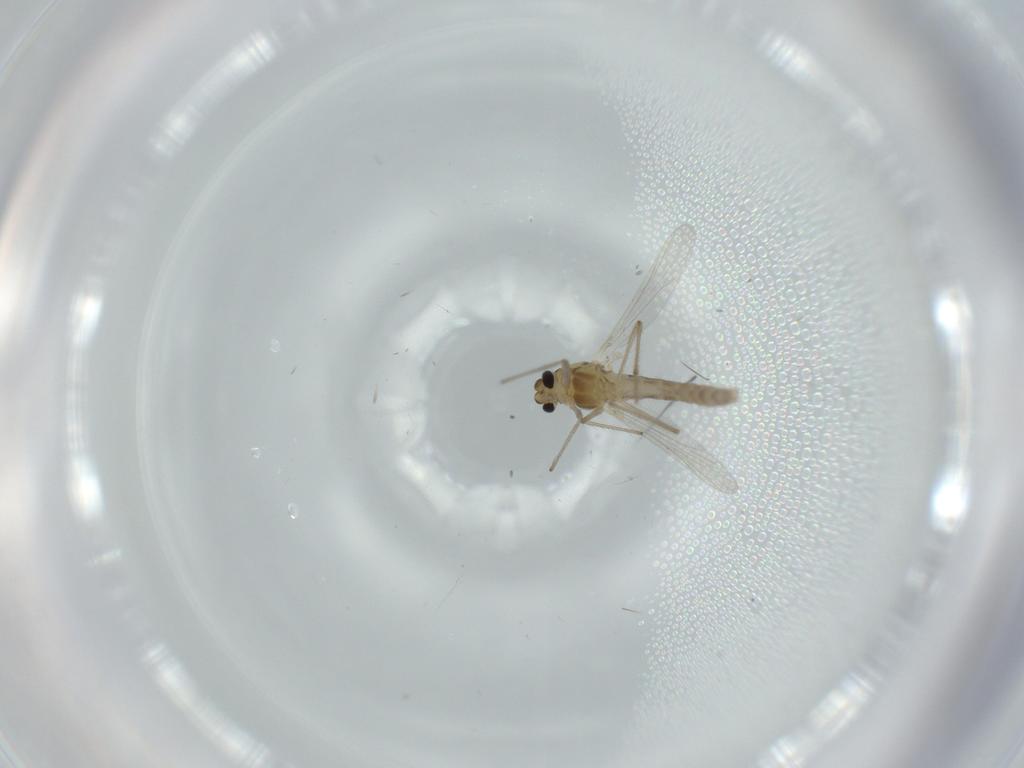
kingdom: Animalia
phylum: Arthropoda
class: Insecta
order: Diptera
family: Chironomidae
